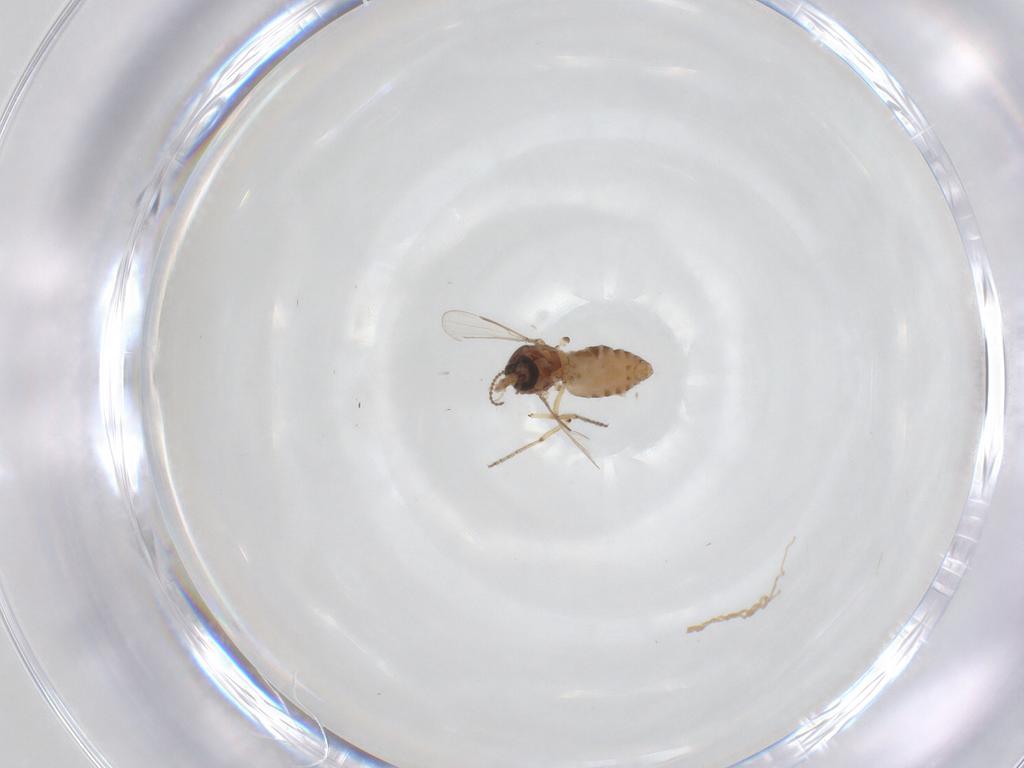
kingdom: Animalia
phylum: Arthropoda
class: Insecta
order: Diptera
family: Ceratopogonidae
